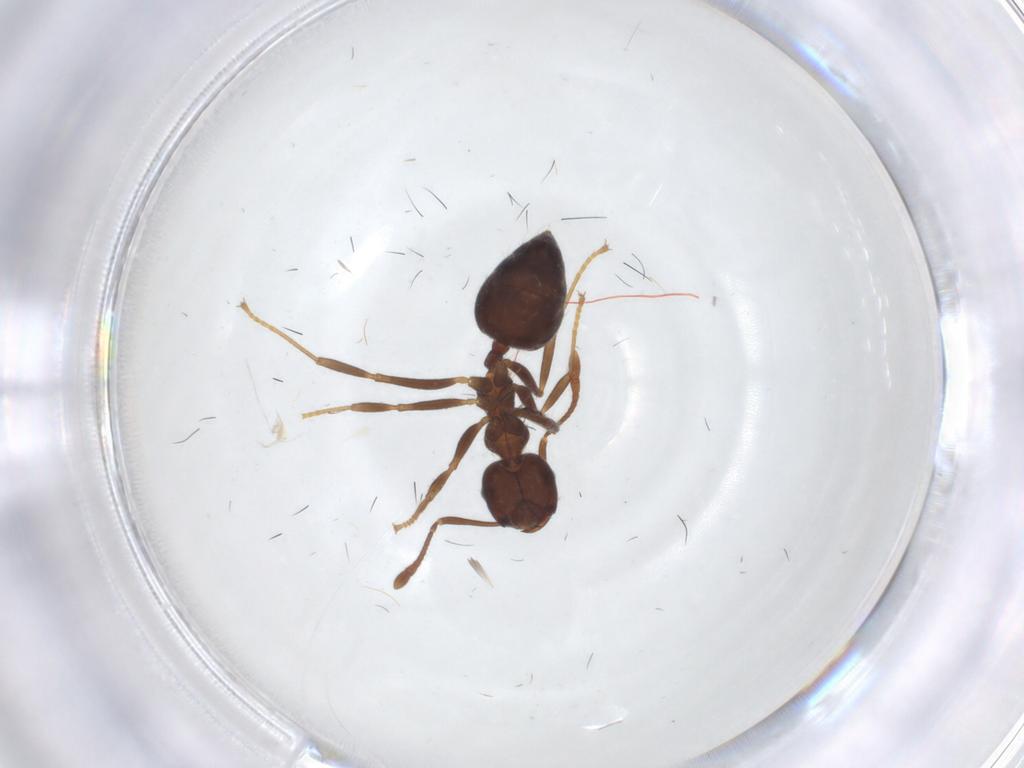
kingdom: Animalia
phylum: Arthropoda
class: Insecta
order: Hymenoptera
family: Formicidae
